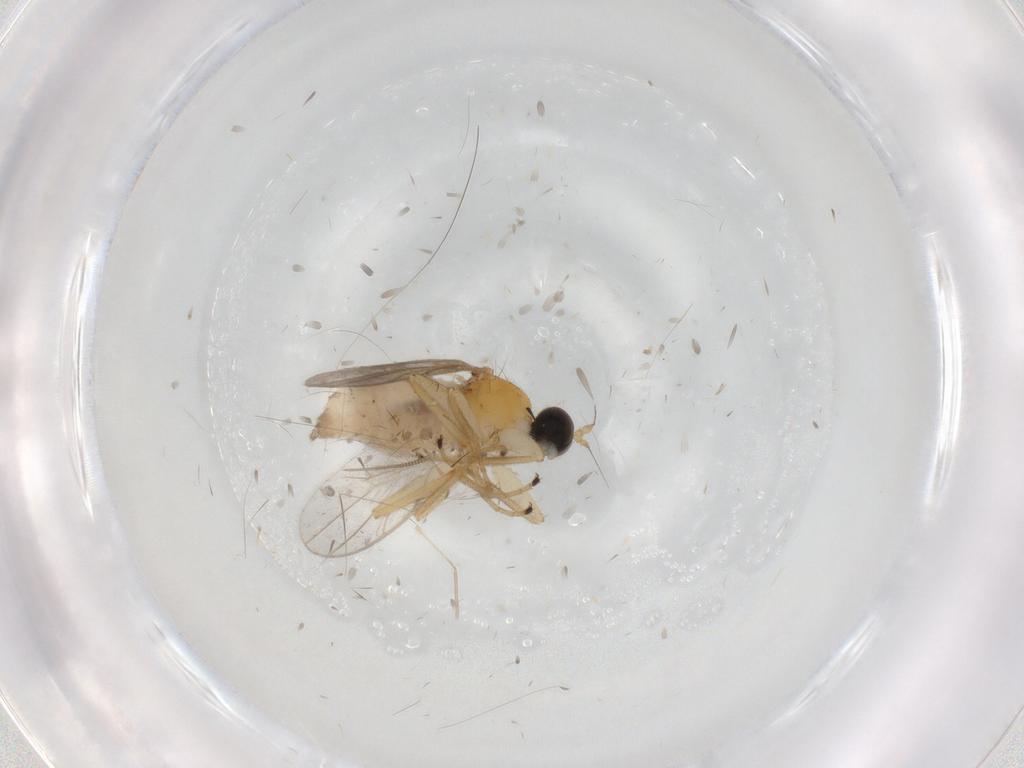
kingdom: Animalia
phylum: Arthropoda
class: Insecta
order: Diptera
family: Hybotidae
